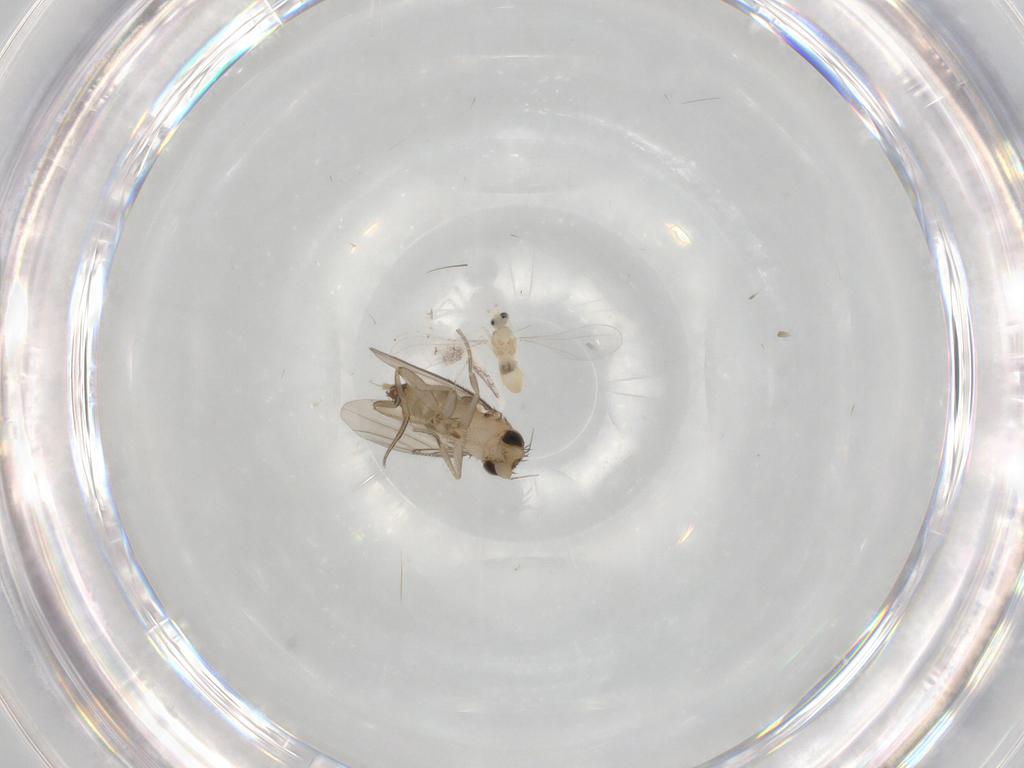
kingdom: Animalia
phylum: Arthropoda
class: Insecta
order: Diptera
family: Phoridae
